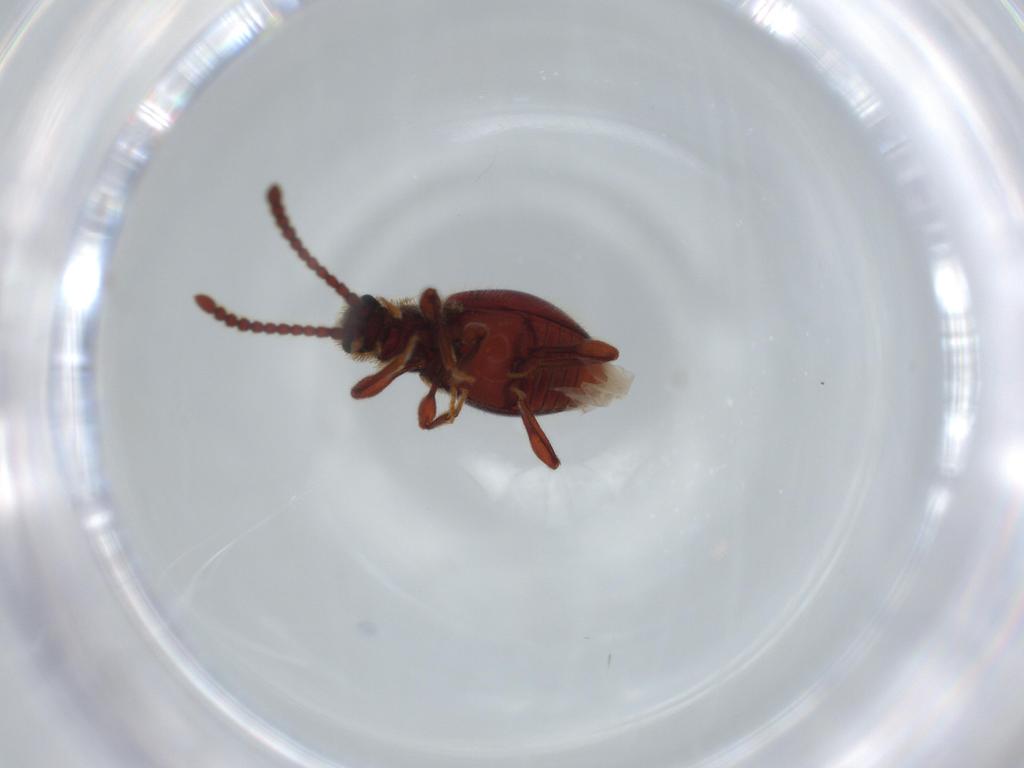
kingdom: Animalia
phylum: Arthropoda
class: Insecta
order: Coleoptera
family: Staphylinidae
